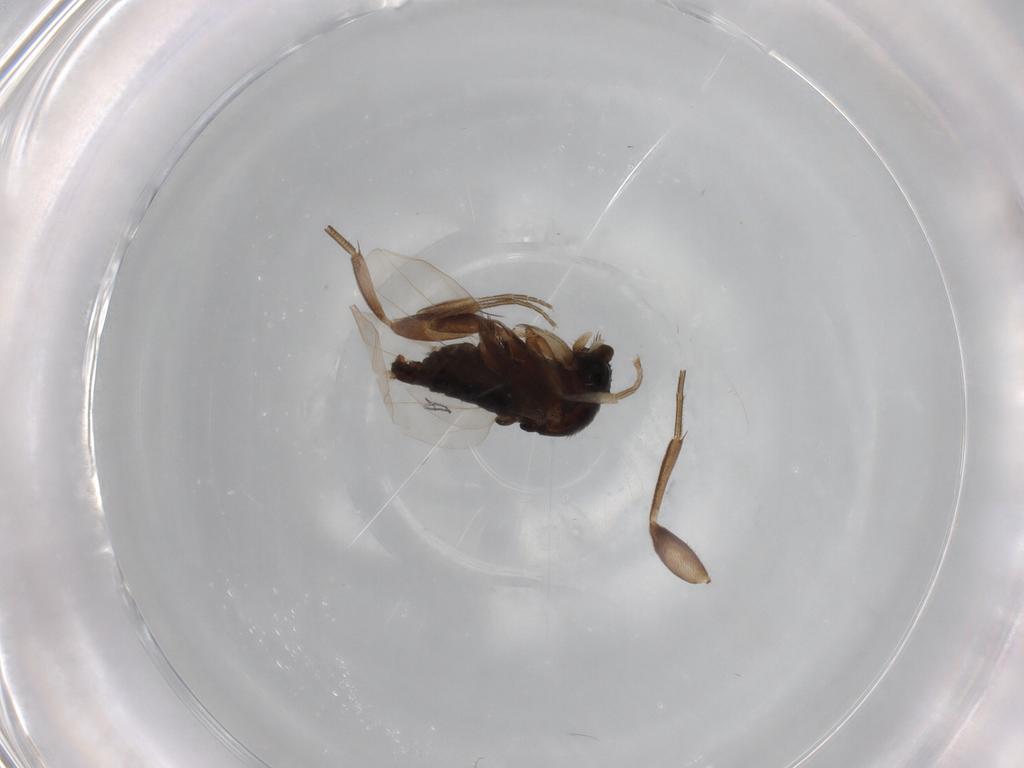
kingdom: Animalia
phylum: Arthropoda
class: Insecta
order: Diptera
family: Phoridae
